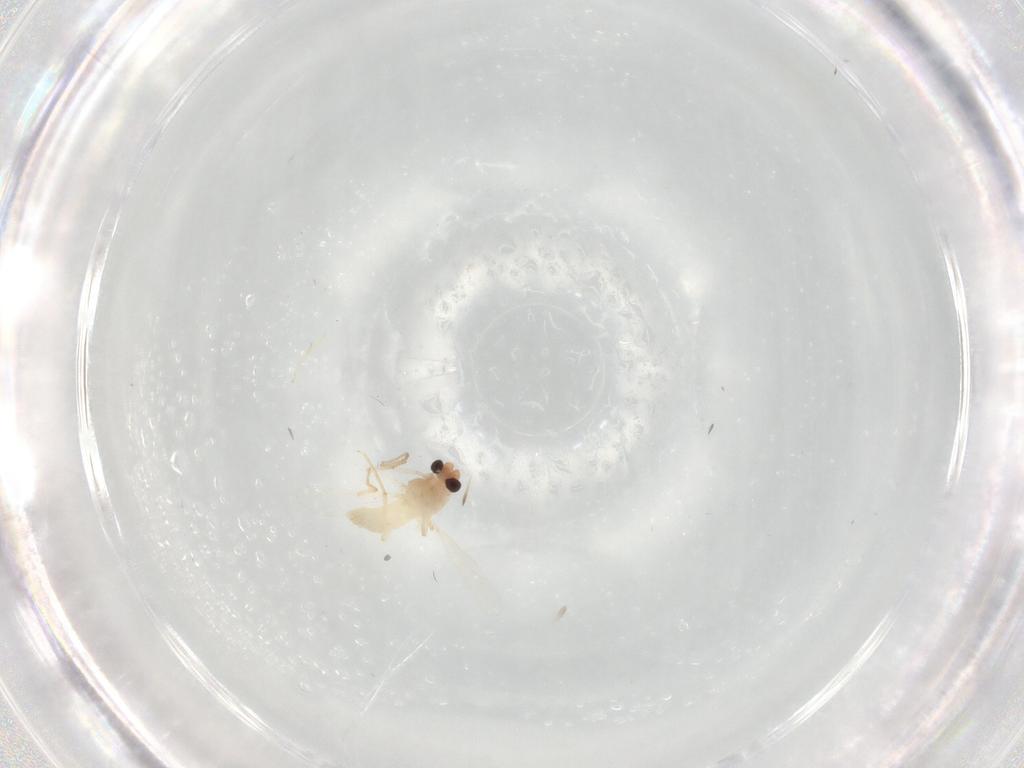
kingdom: Animalia
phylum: Arthropoda
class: Insecta
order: Diptera
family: Chironomidae
